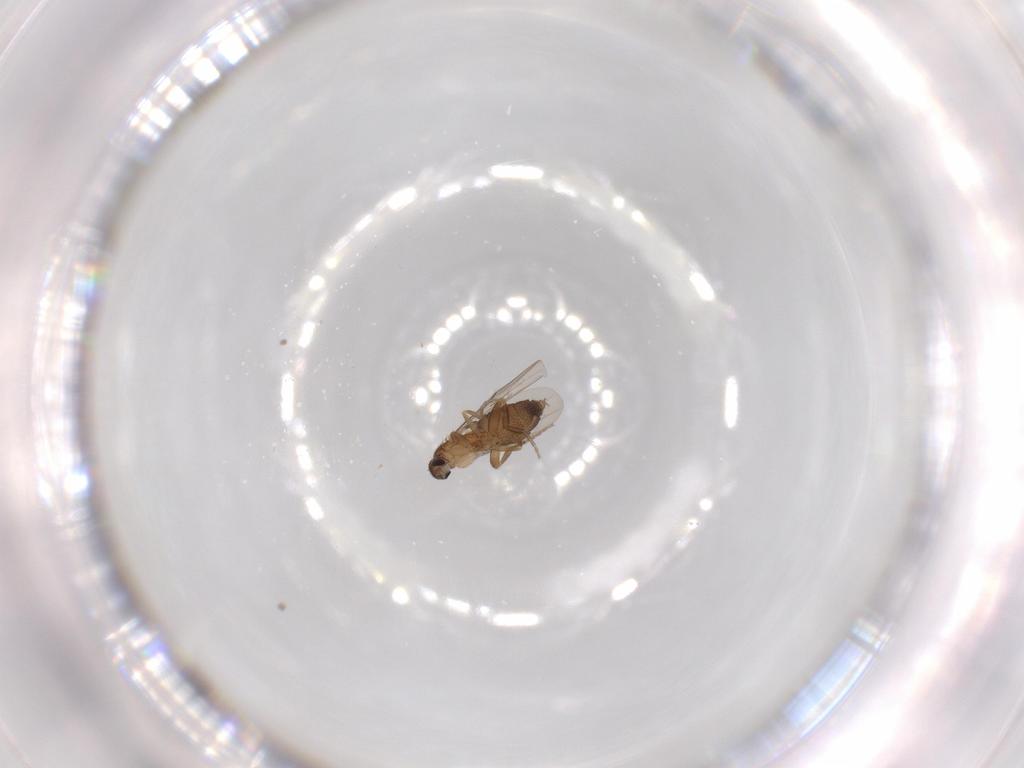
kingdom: Animalia
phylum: Arthropoda
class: Insecta
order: Diptera
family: Phoridae
